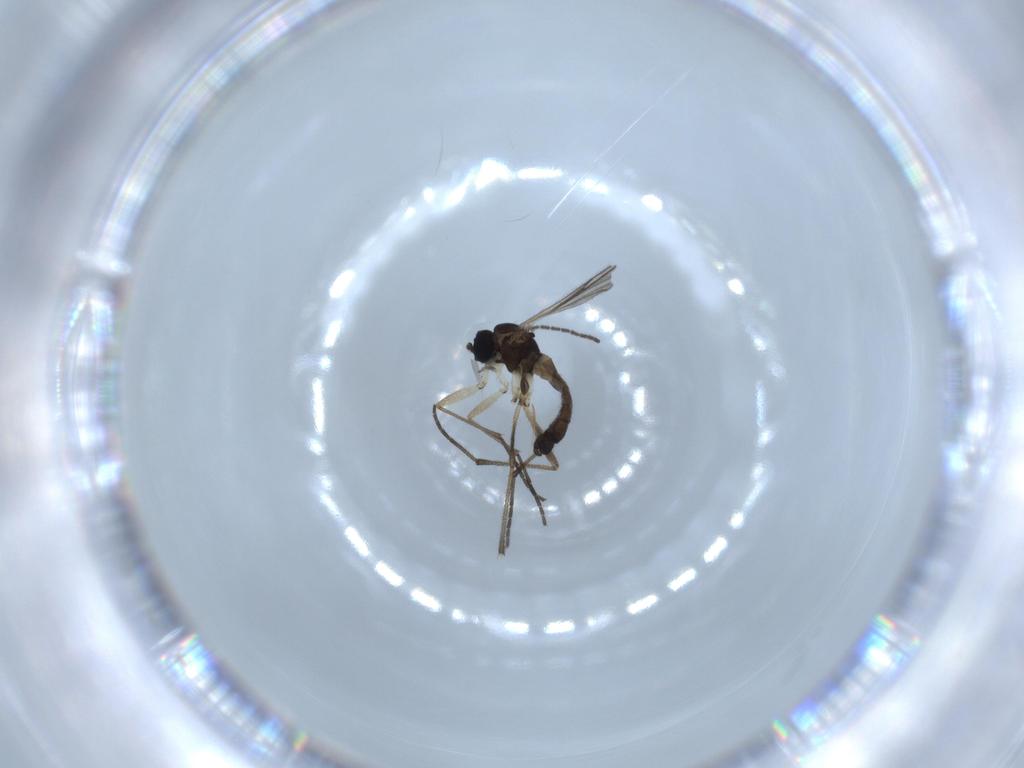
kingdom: Animalia
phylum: Arthropoda
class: Insecta
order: Diptera
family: Sciaridae
